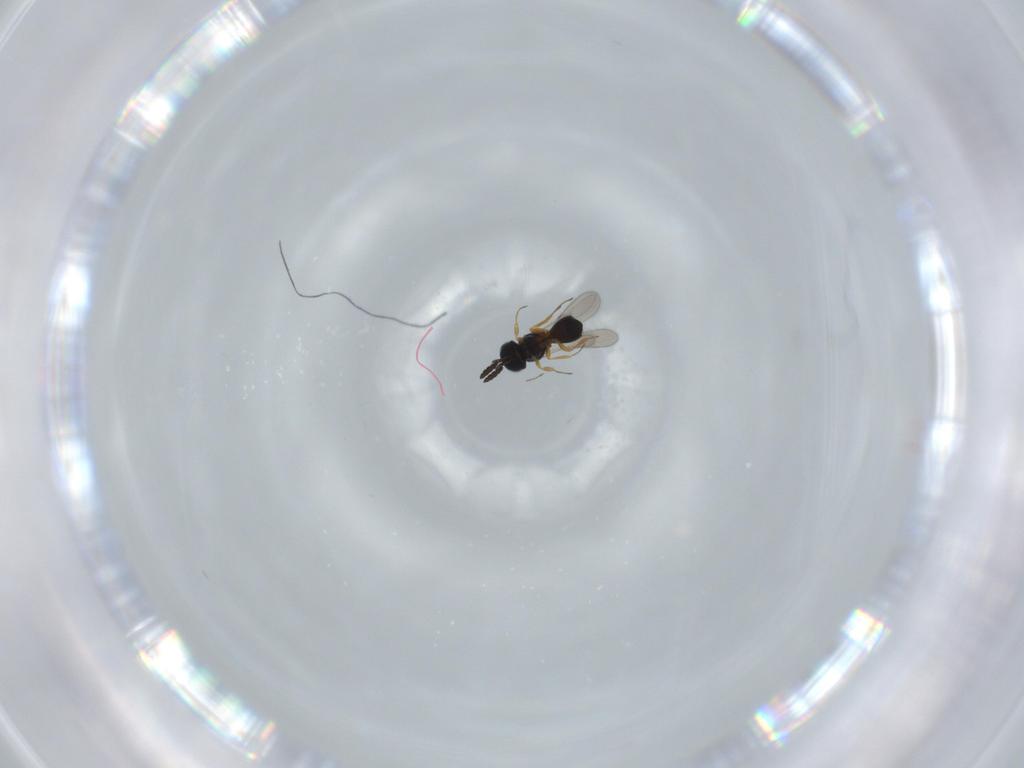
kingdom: Animalia
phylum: Arthropoda
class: Insecta
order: Hymenoptera
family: Scelionidae
